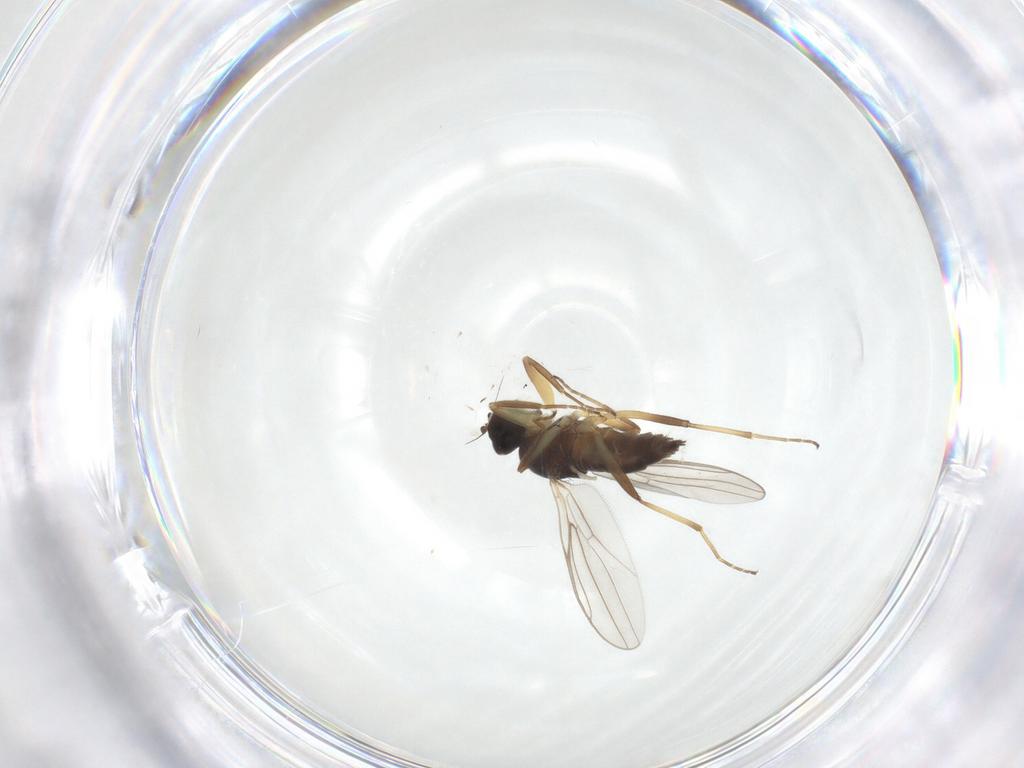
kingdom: Animalia
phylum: Arthropoda
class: Insecta
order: Diptera
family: Hybotidae
